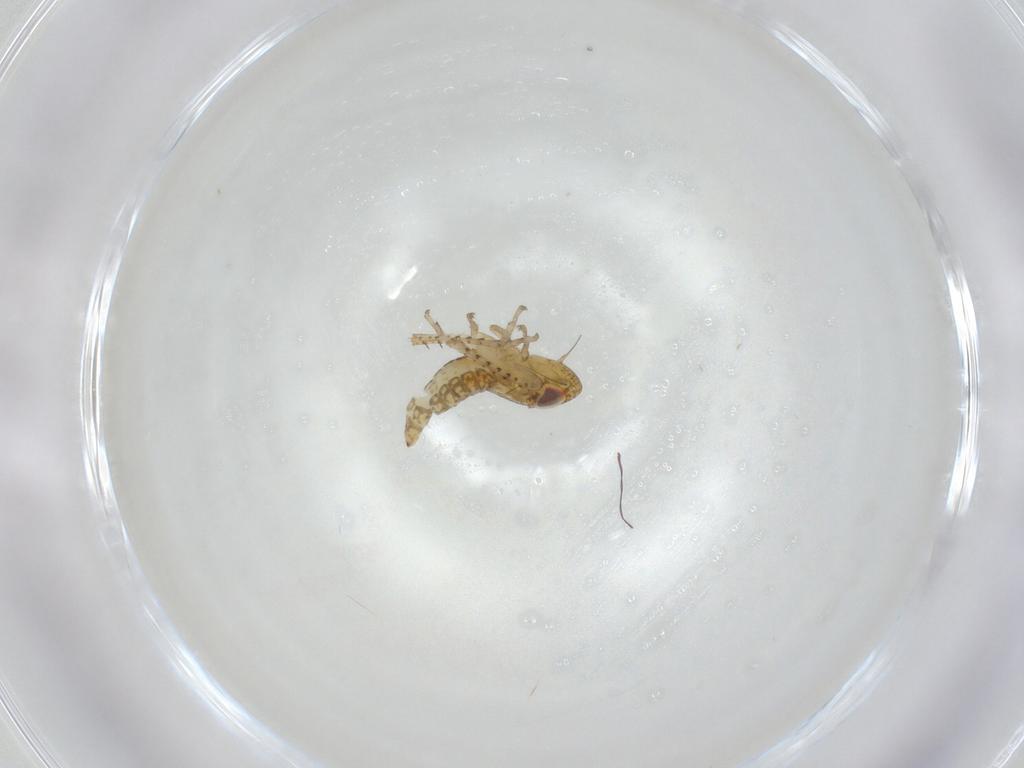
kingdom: Animalia
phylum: Arthropoda
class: Insecta
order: Hemiptera
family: Cicadellidae
